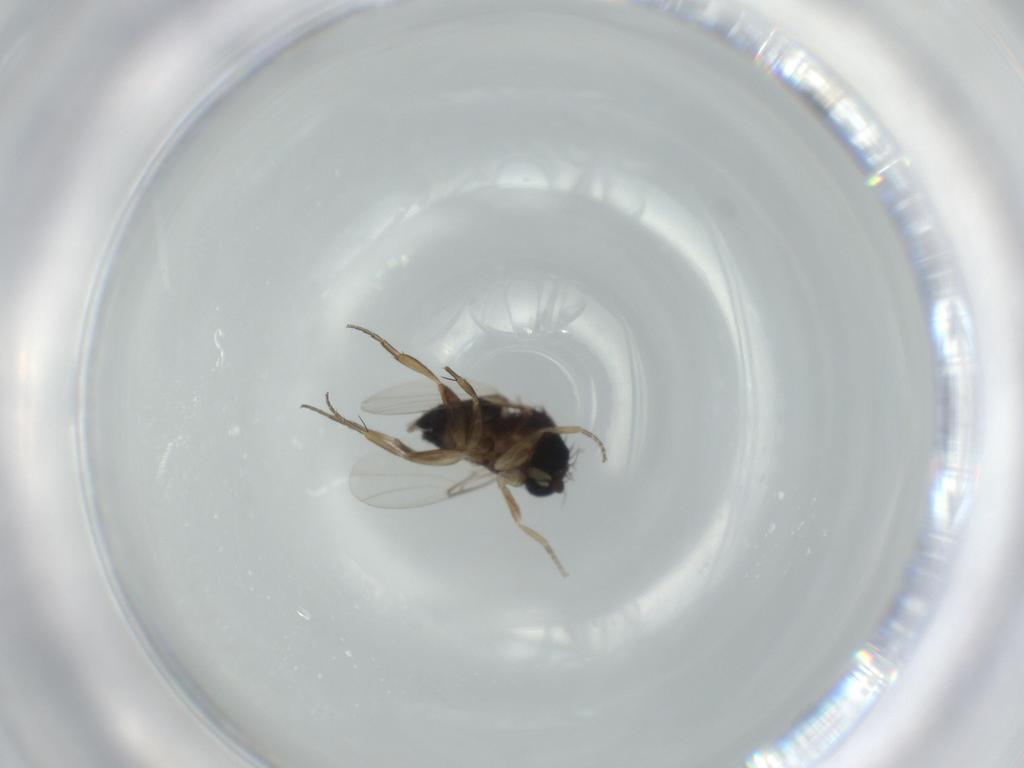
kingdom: Animalia
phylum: Arthropoda
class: Insecta
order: Diptera
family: Phoridae
